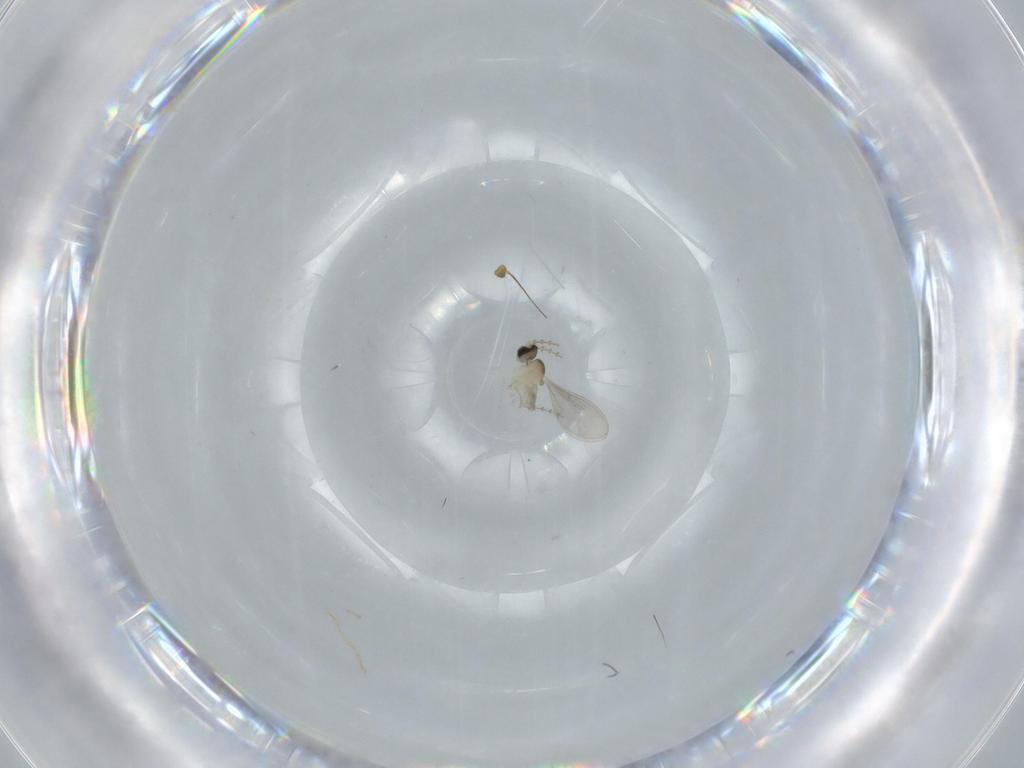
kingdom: Animalia
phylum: Arthropoda
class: Insecta
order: Diptera
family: Cecidomyiidae
